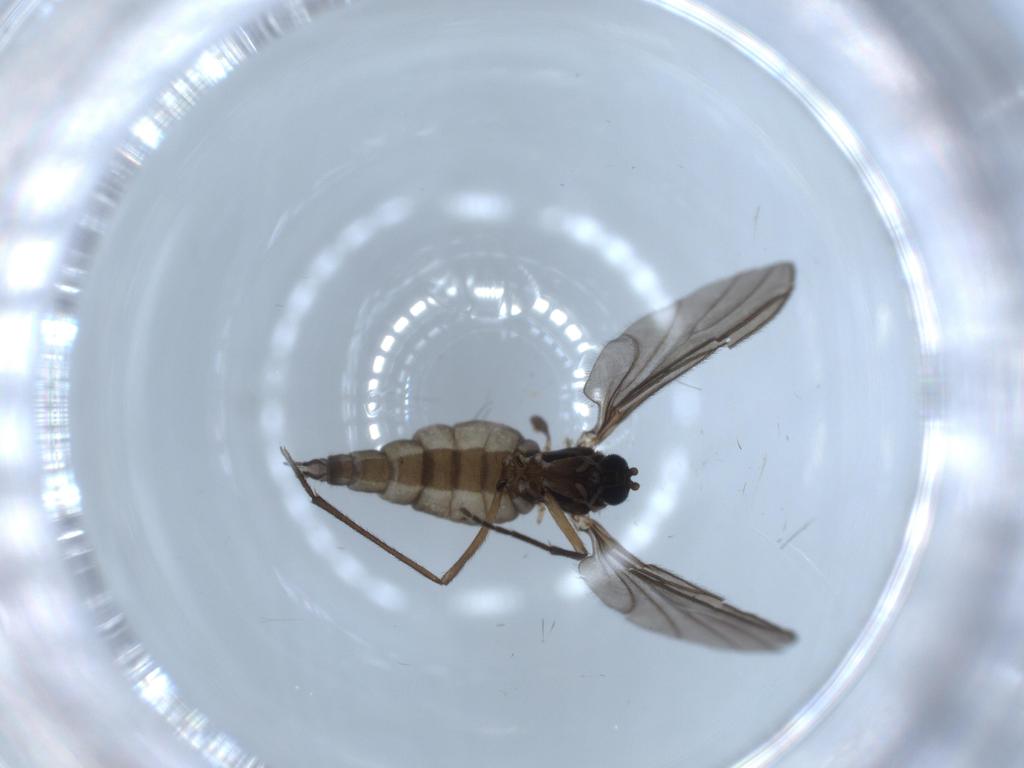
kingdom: Animalia
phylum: Arthropoda
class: Insecta
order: Diptera
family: Sciaridae
